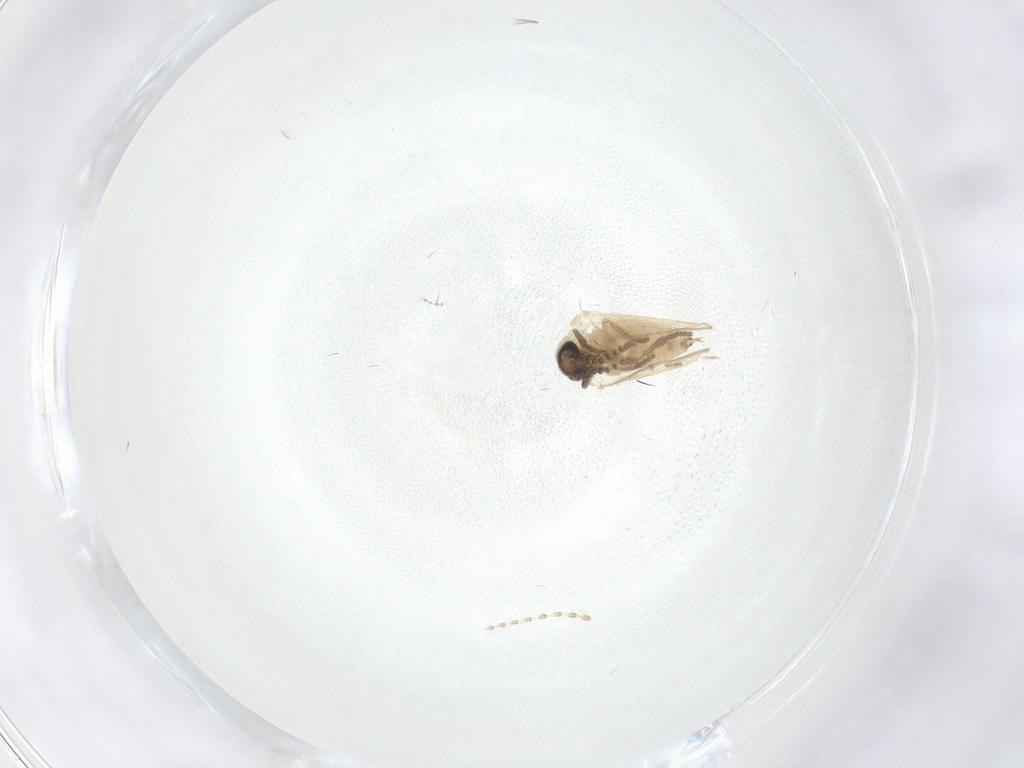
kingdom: Animalia
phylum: Arthropoda
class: Insecta
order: Diptera
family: Psychodidae
